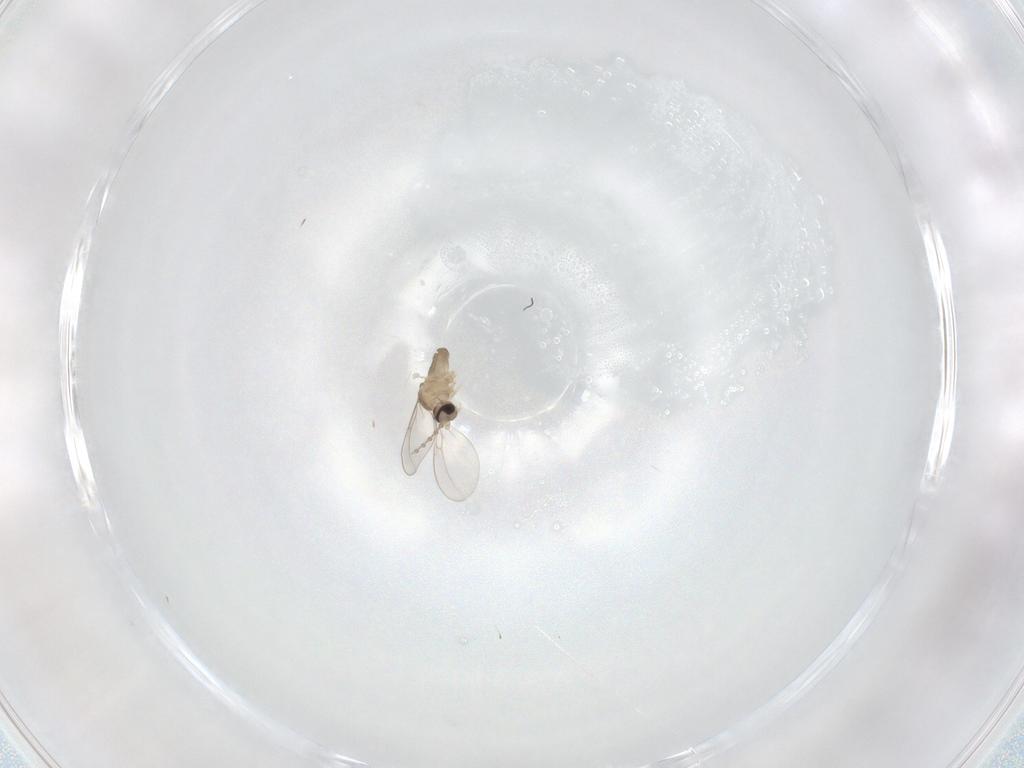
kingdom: Animalia
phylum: Arthropoda
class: Insecta
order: Diptera
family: Cecidomyiidae
